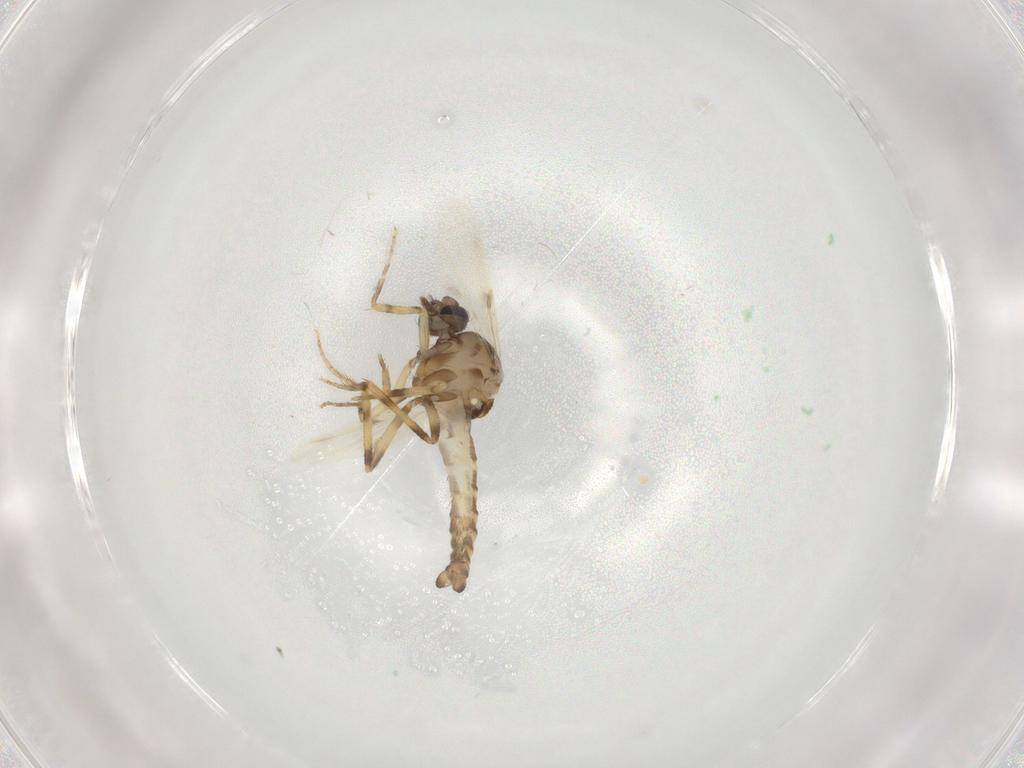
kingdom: Animalia
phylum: Arthropoda
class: Insecta
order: Diptera
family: Ceratopogonidae
